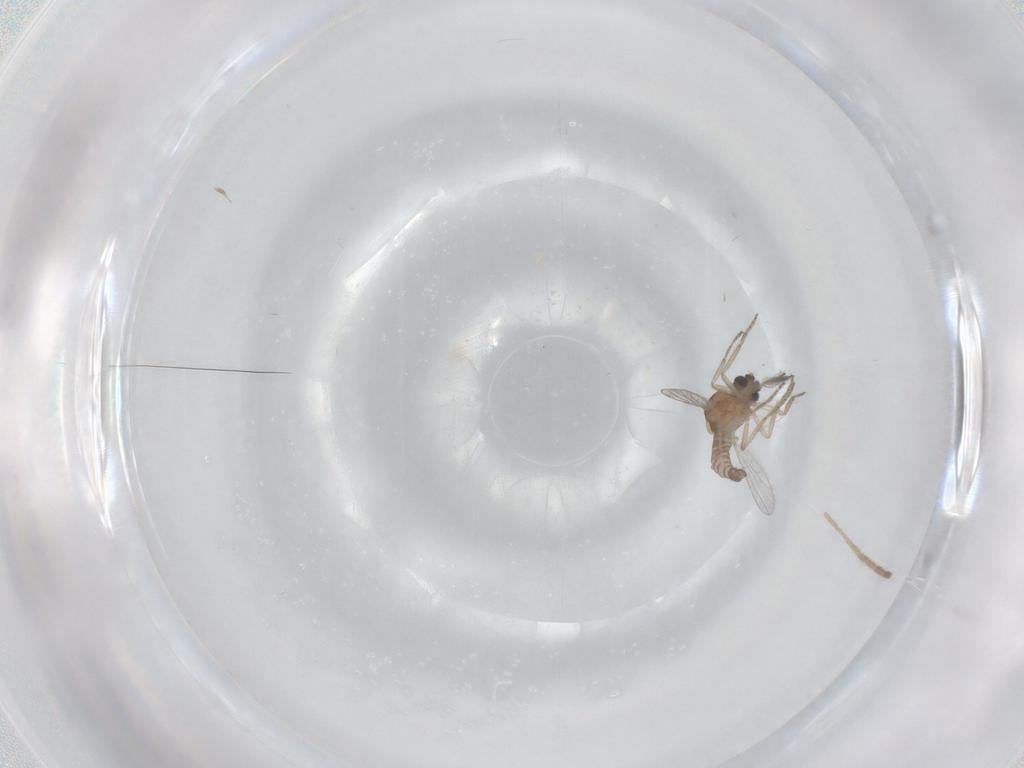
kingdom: Animalia
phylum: Arthropoda
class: Insecta
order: Diptera
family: Chironomidae
